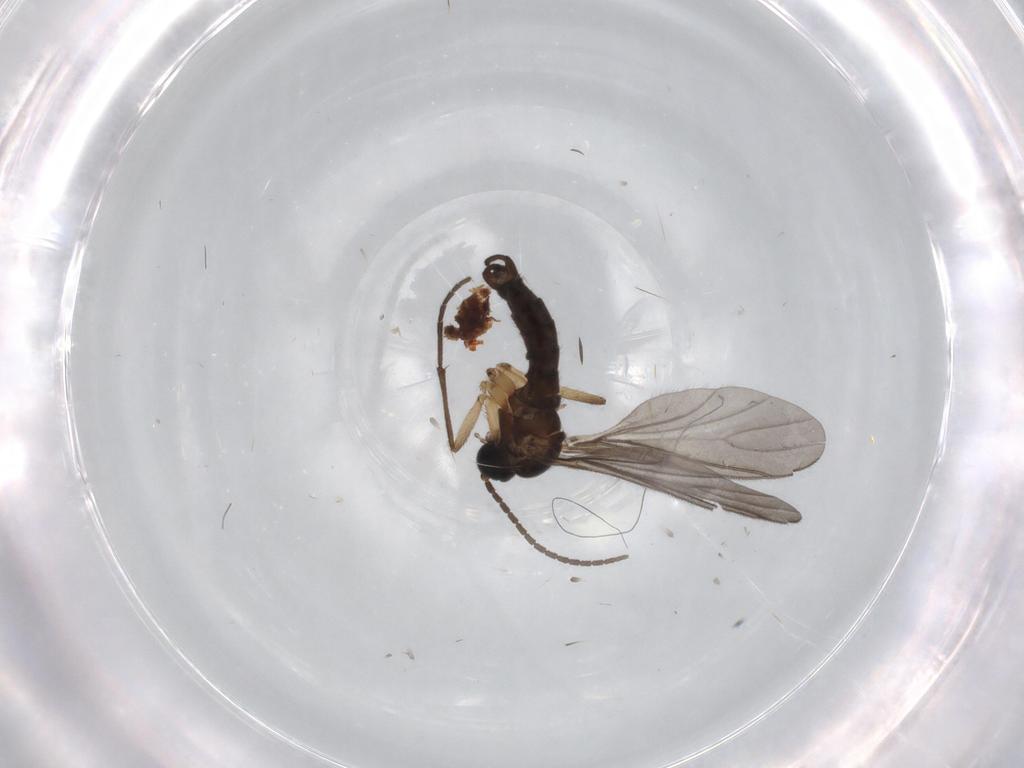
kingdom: Animalia
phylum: Arthropoda
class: Insecta
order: Diptera
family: Sciaridae
